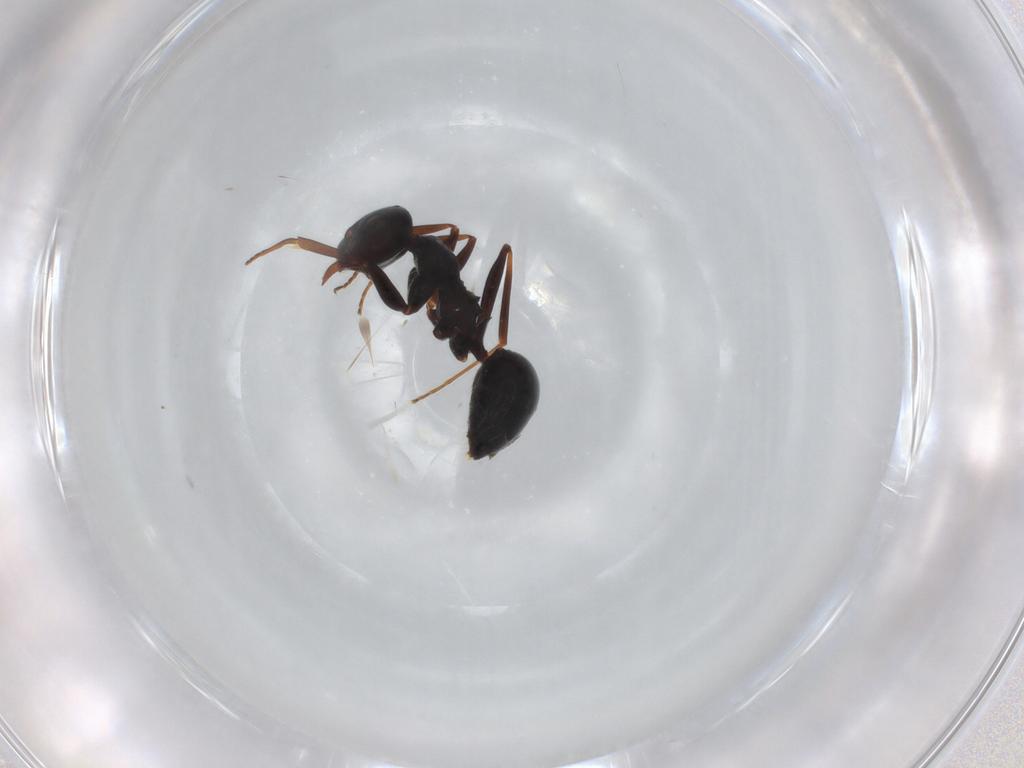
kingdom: Animalia
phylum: Arthropoda
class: Insecta
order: Hymenoptera
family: Formicidae
